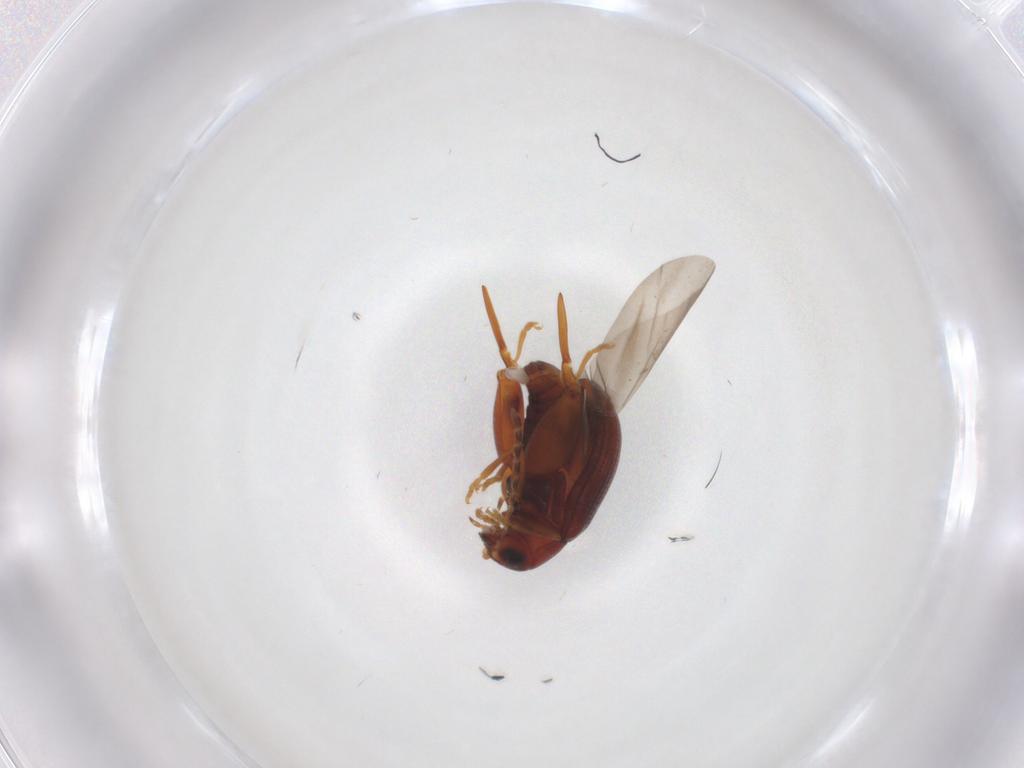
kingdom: Animalia
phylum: Arthropoda
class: Insecta
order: Coleoptera
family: Chrysomelidae
